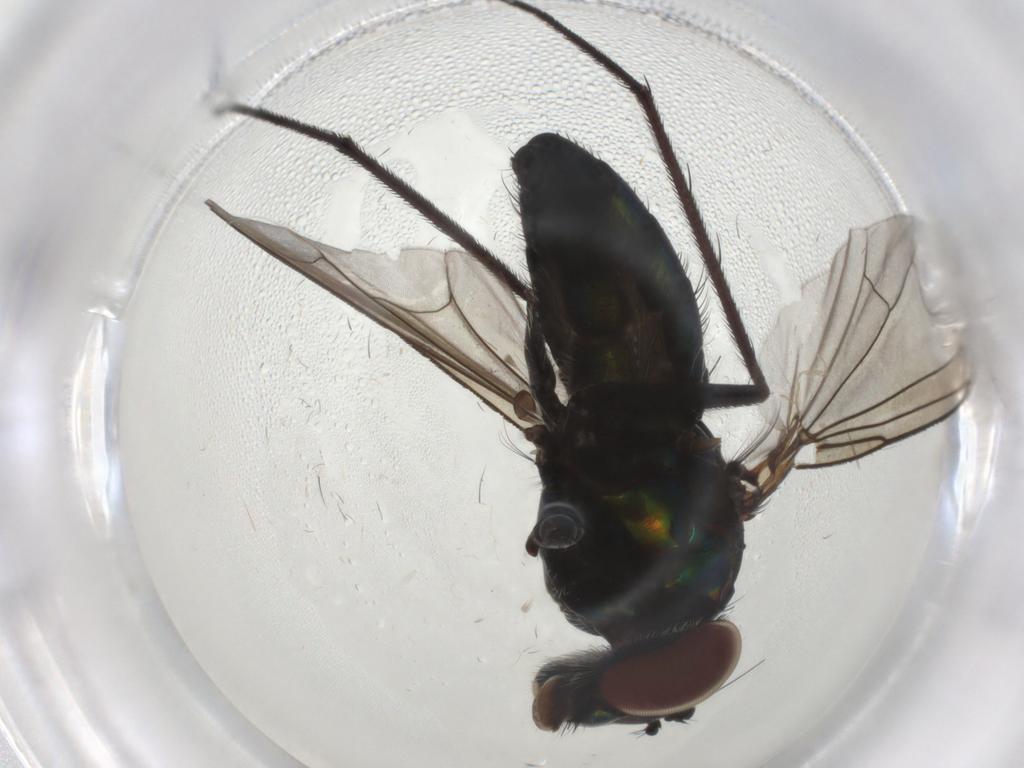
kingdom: Animalia
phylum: Arthropoda
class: Insecta
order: Diptera
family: Dolichopodidae
